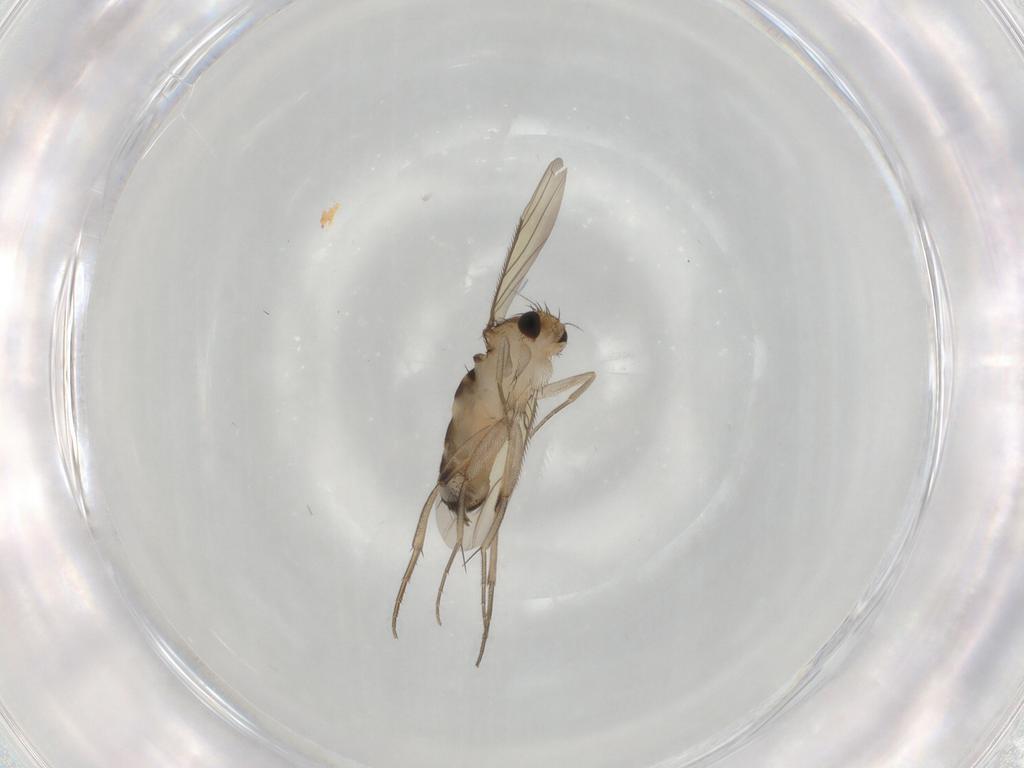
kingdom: Animalia
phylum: Arthropoda
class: Insecta
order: Diptera
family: Phoridae
